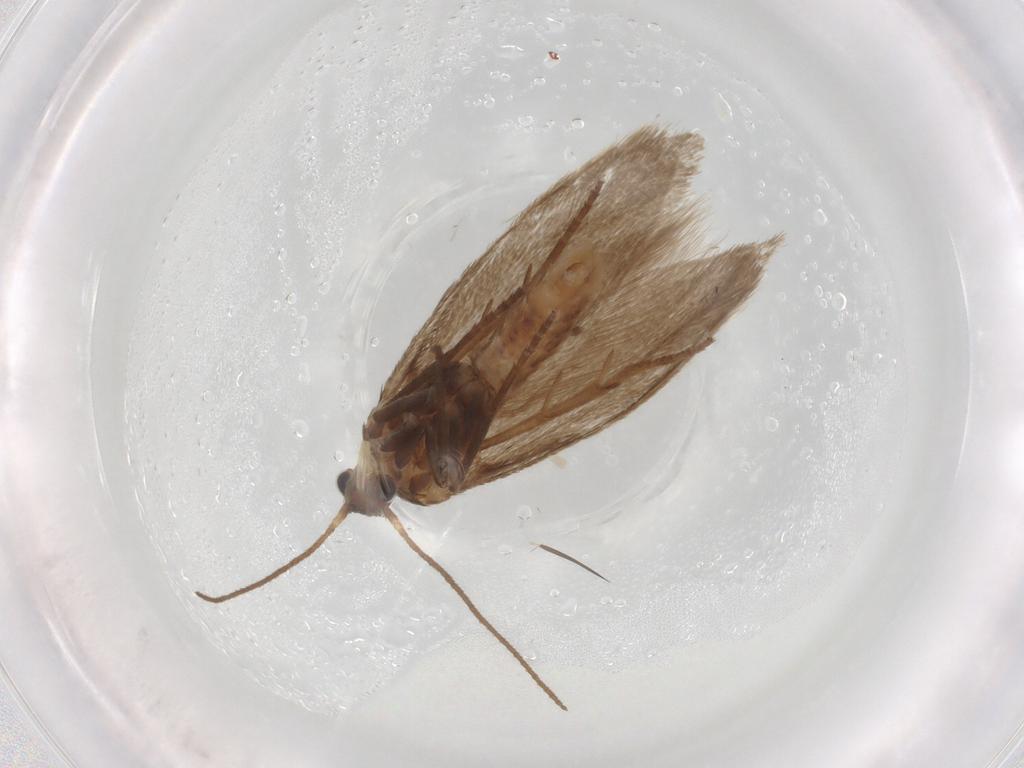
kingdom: Animalia
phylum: Arthropoda
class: Insecta
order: Lepidoptera
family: Limacodidae
